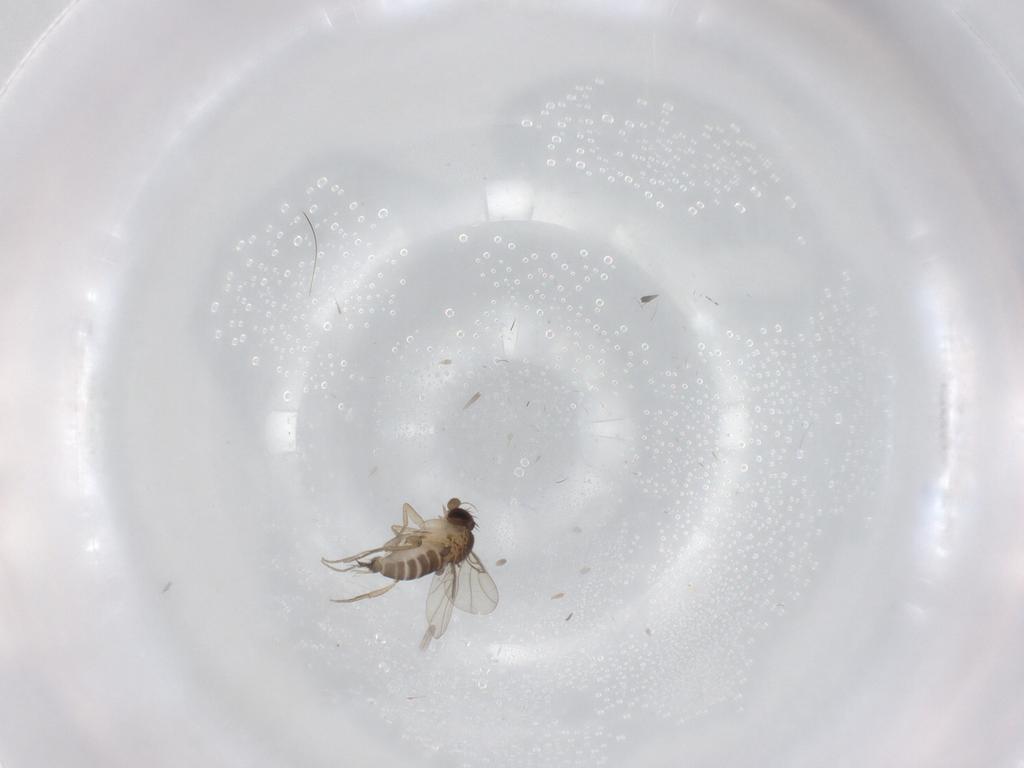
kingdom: Animalia
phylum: Arthropoda
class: Insecta
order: Diptera
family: Phoridae
